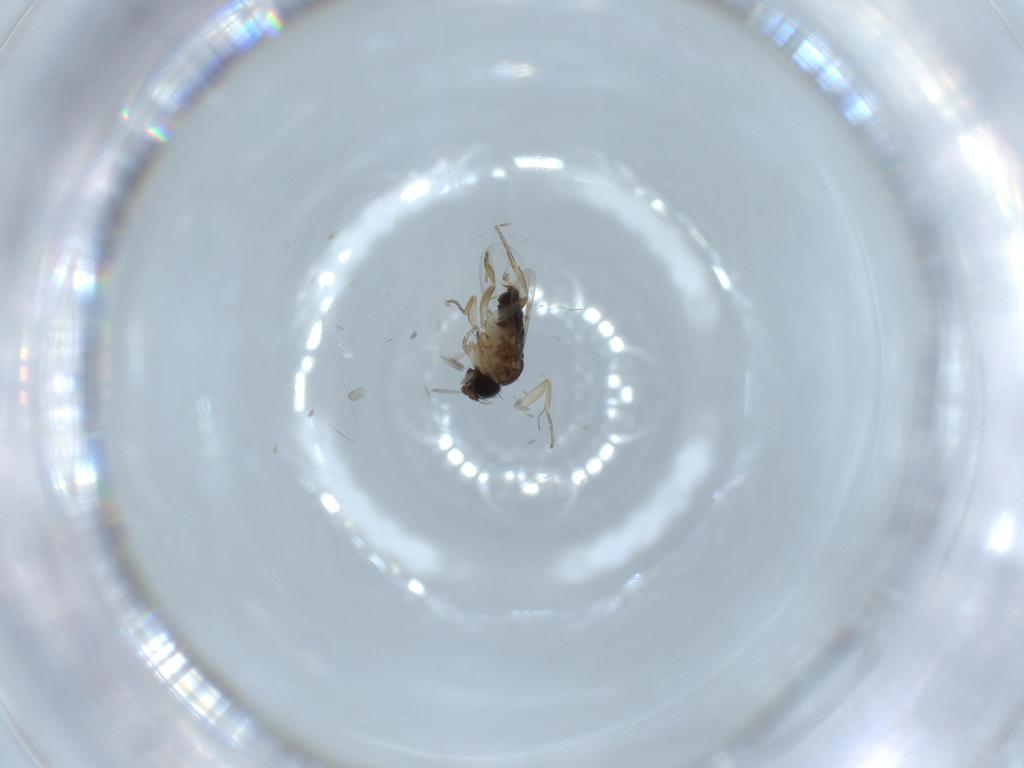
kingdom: Animalia
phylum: Arthropoda
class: Insecta
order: Diptera
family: Phoridae
